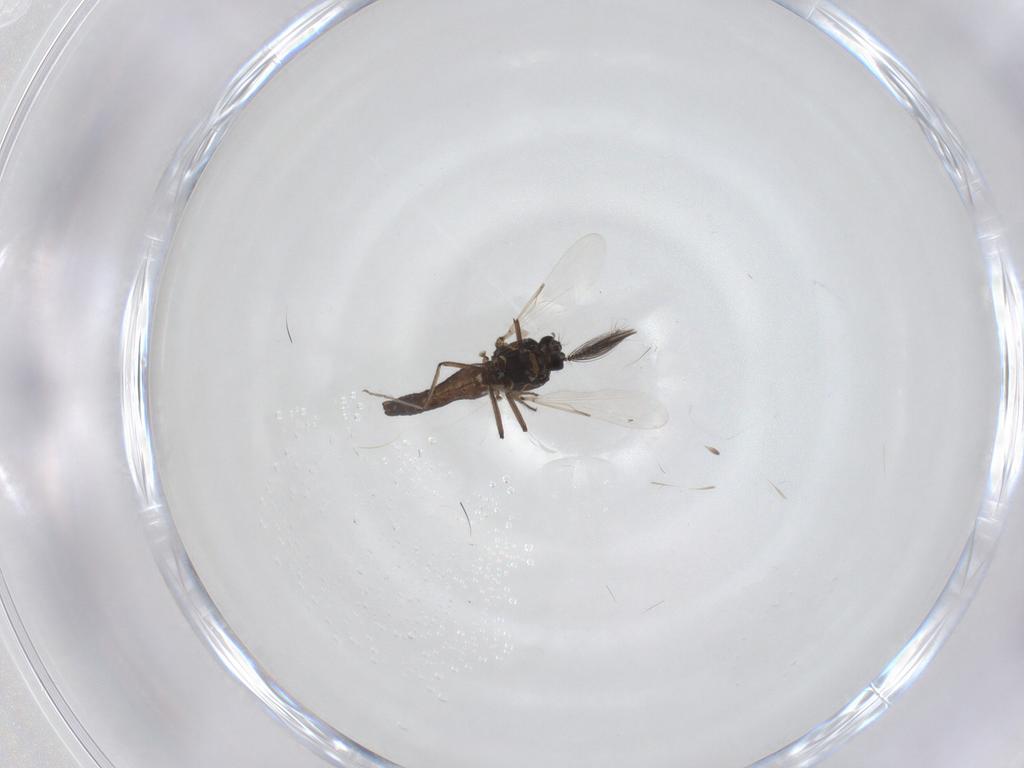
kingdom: Animalia
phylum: Arthropoda
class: Insecta
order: Diptera
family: Ceratopogonidae
